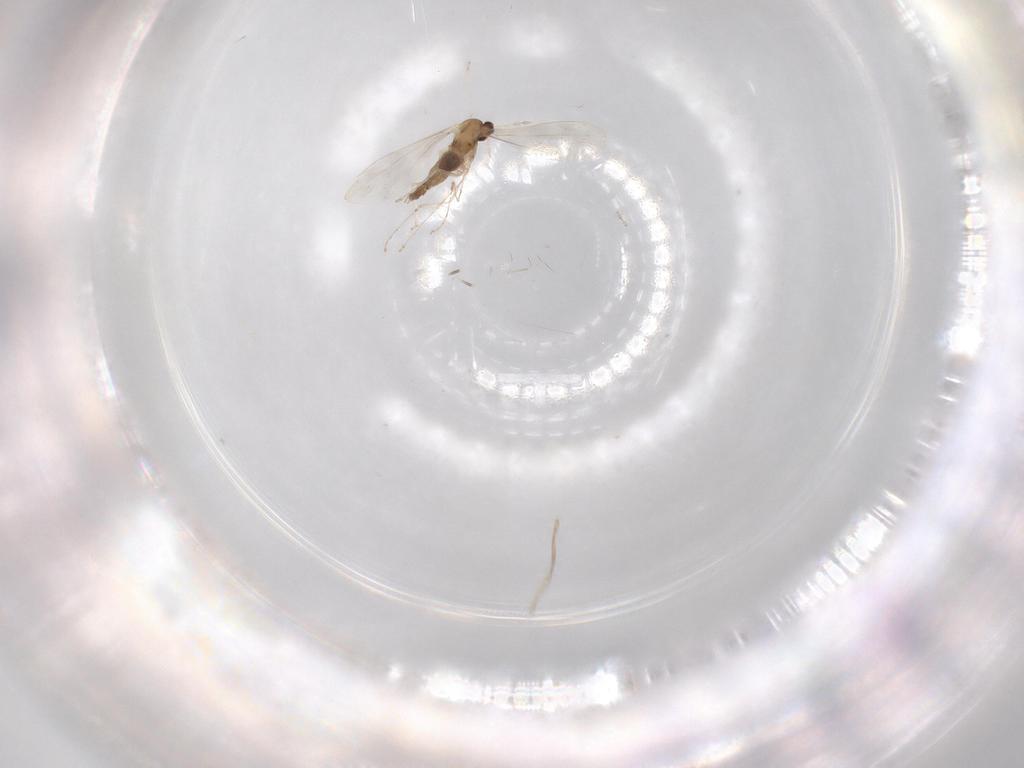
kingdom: Animalia
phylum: Arthropoda
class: Insecta
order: Diptera
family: Cecidomyiidae
